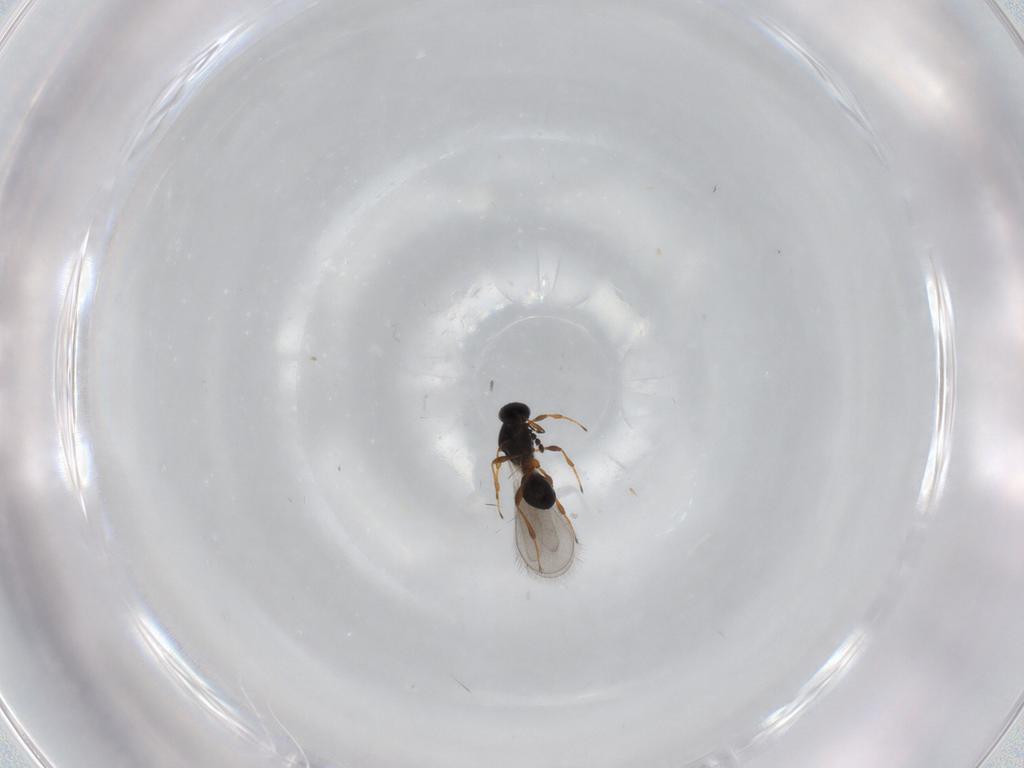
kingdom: Animalia
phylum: Arthropoda
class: Insecta
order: Hymenoptera
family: Platygastridae
